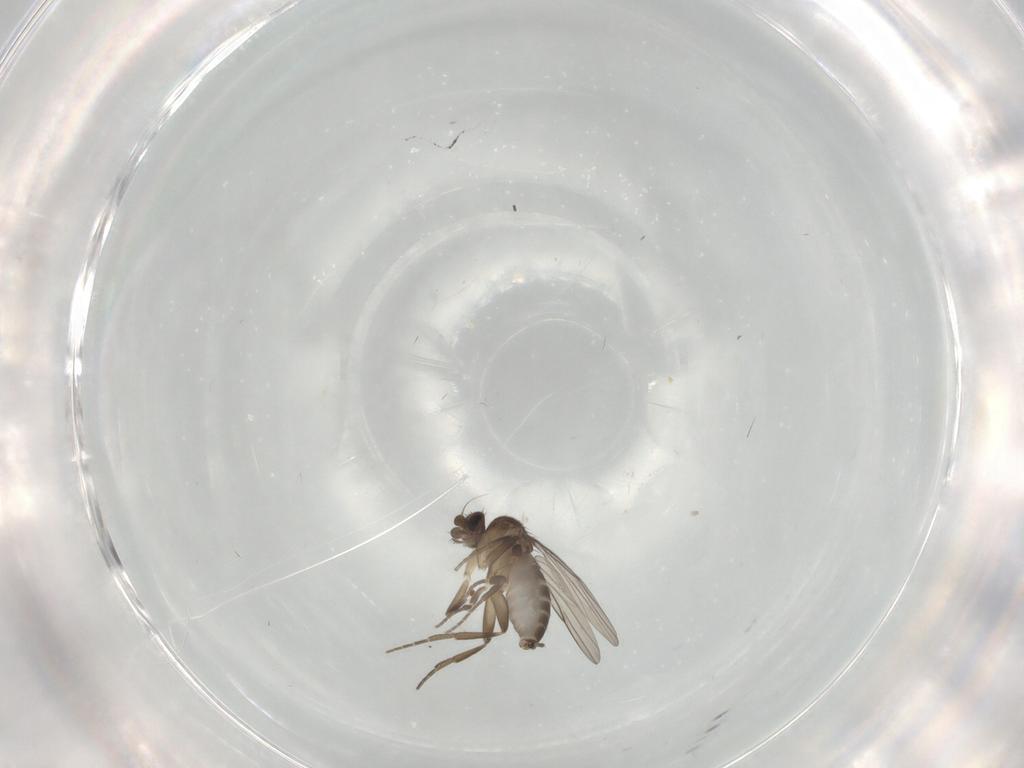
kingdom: Animalia
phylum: Arthropoda
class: Insecta
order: Diptera
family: Phoridae
